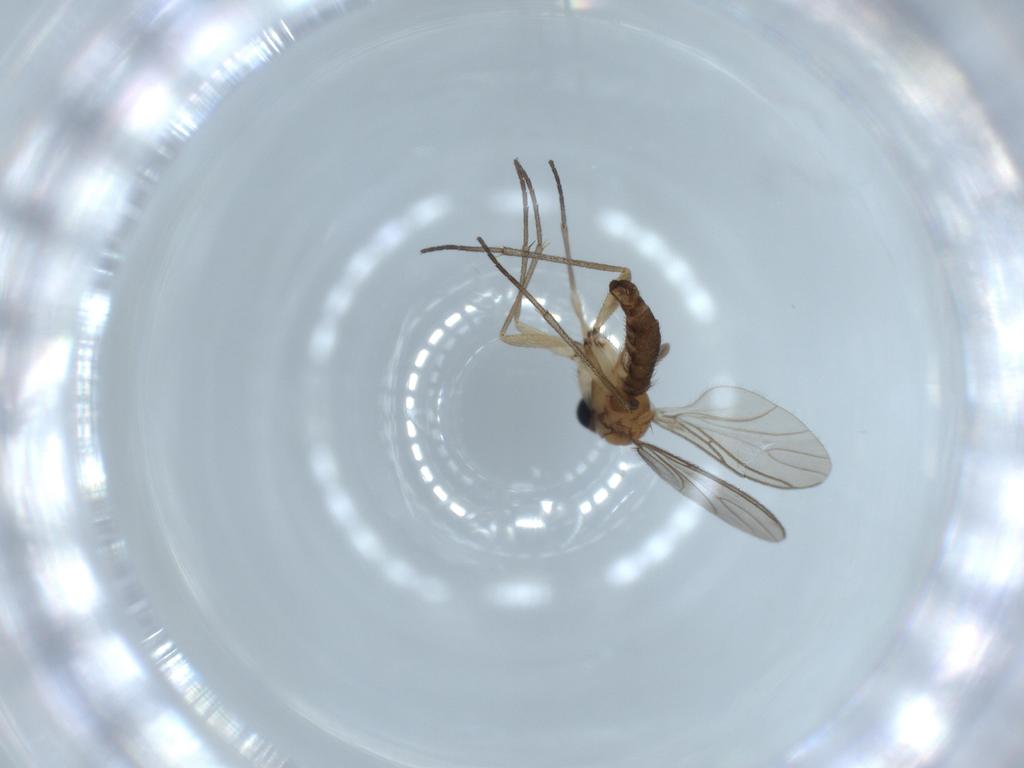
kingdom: Animalia
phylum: Arthropoda
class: Insecta
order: Diptera
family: Sciaridae
